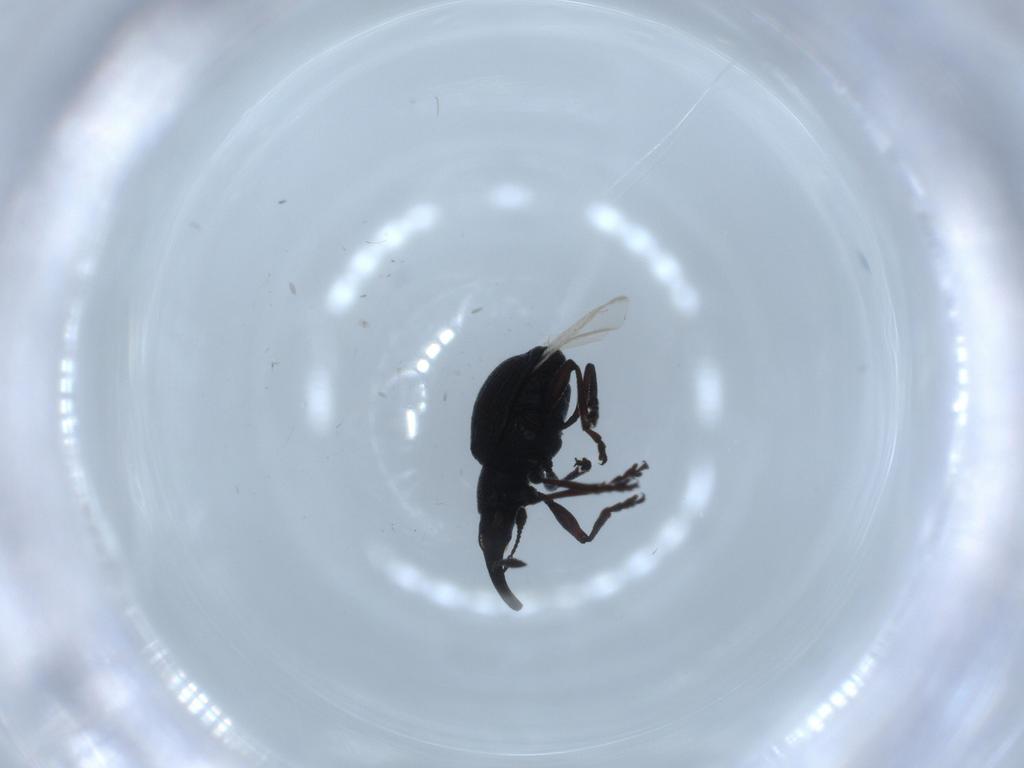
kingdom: Animalia
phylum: Arthropoda
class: Insecta
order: Coleoptera
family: Brentidae
